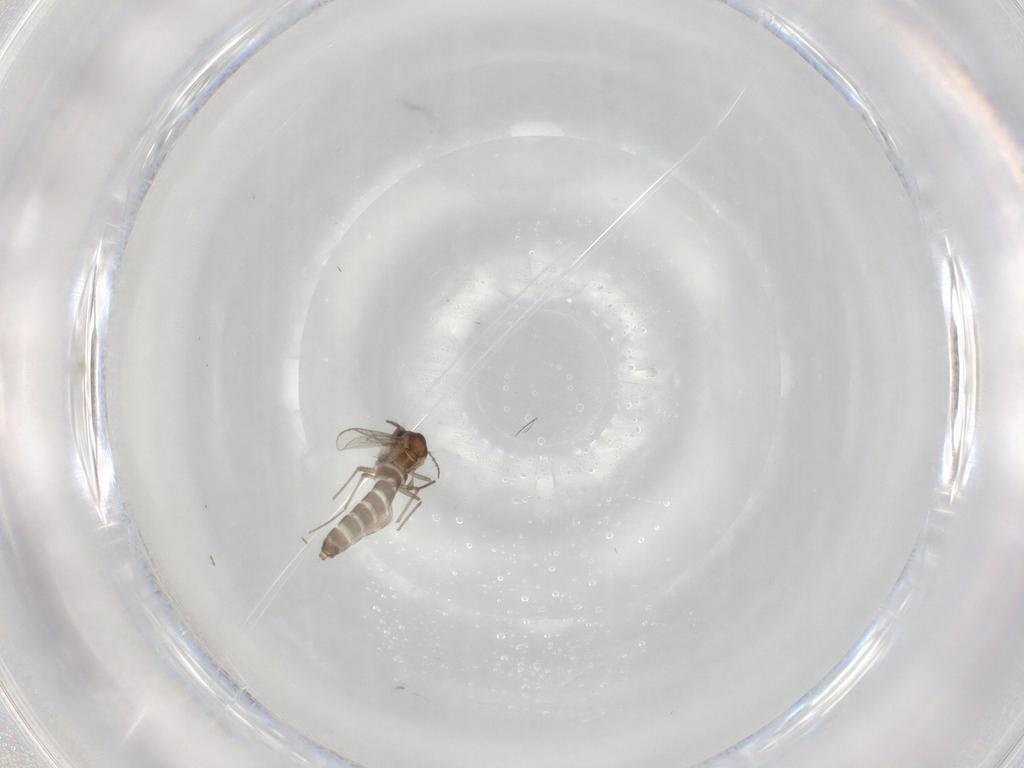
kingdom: Animalia
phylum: Arthropoda
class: Insecta
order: Diptera
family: Chironomidae
